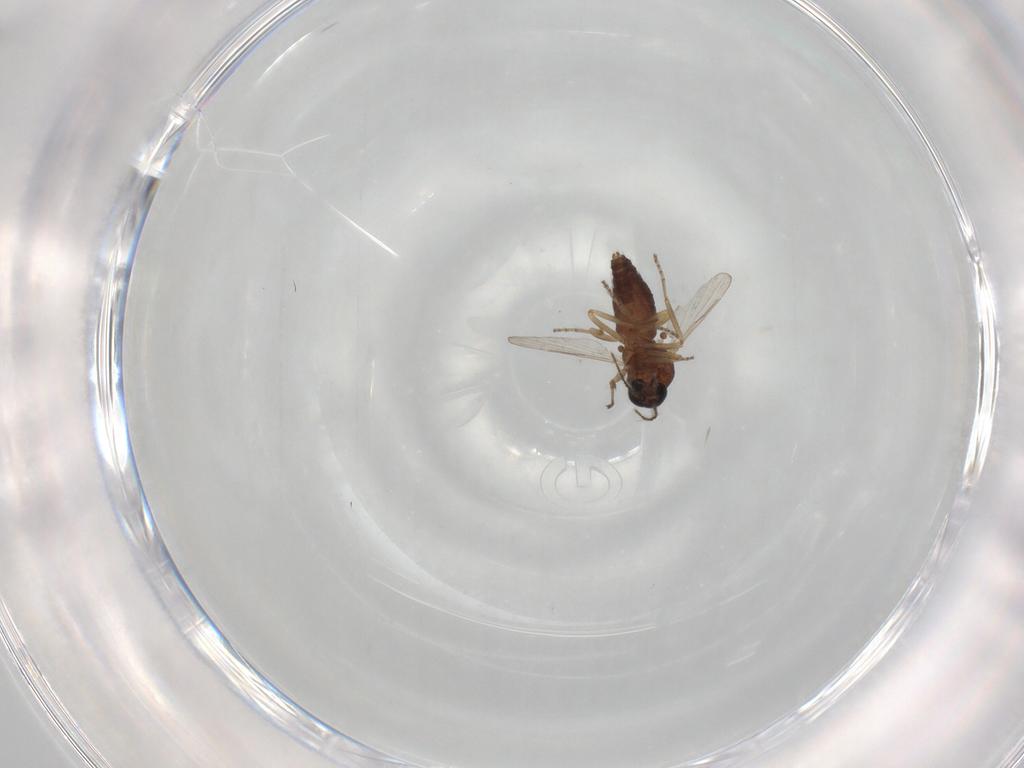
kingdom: Animalia
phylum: Arthropoda
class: Insecta
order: Diptera
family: Ceratopogonidae
